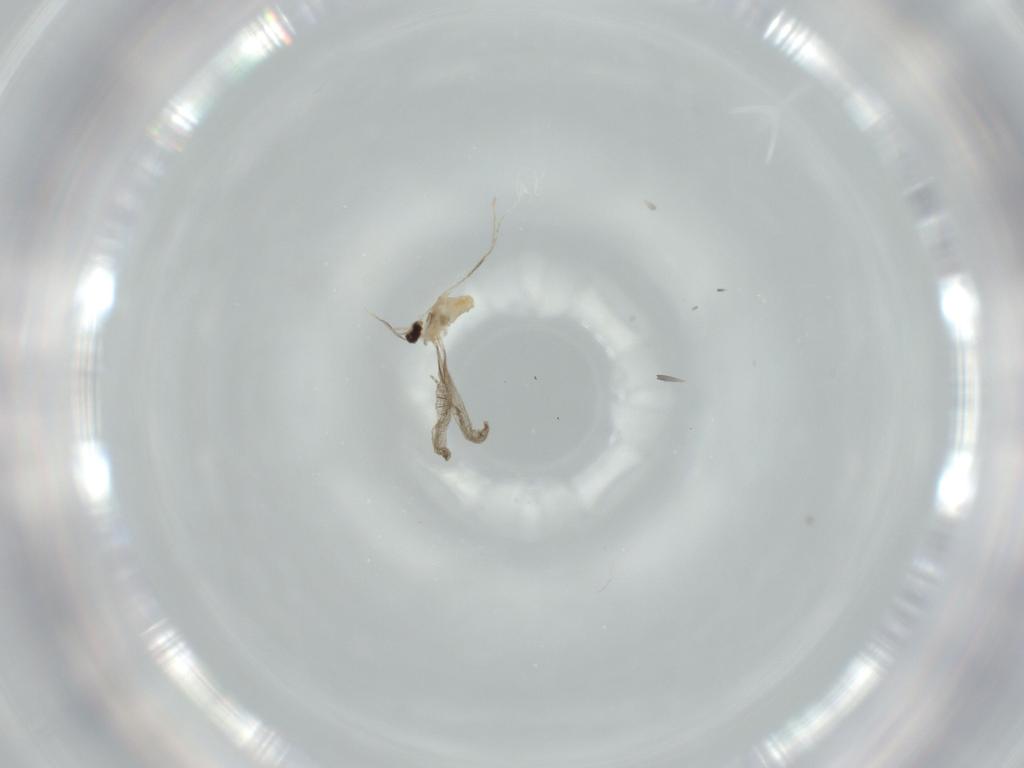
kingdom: Animalia
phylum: Arthropoda
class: Insecta
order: Diptera
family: Cecidomyiidae
